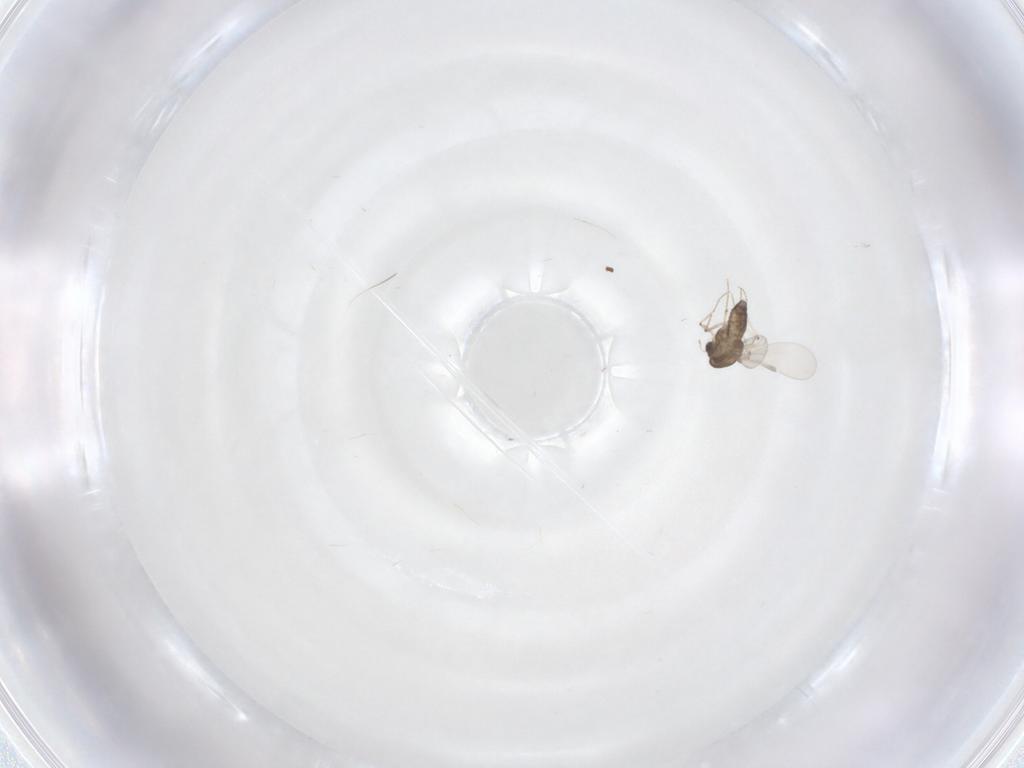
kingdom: Animalia
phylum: Arthropoda
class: Insecta
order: Diptera
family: Chironomidae
